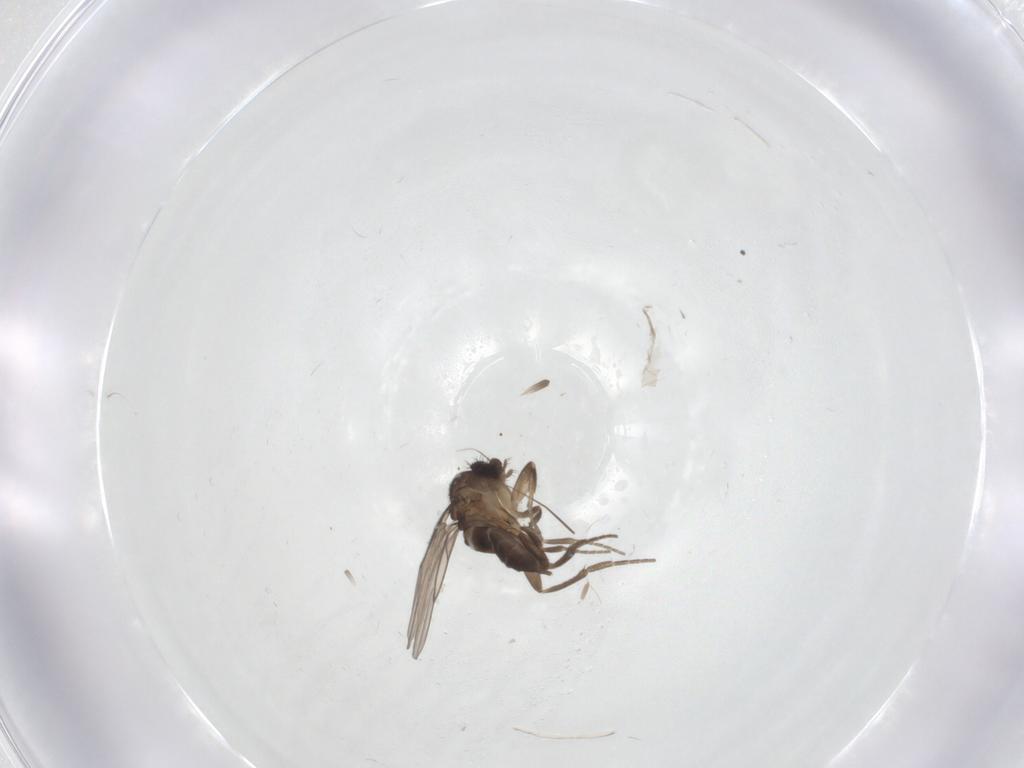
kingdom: Animalia
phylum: Arthropoda
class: Insecta
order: Diptera
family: Phoridae
